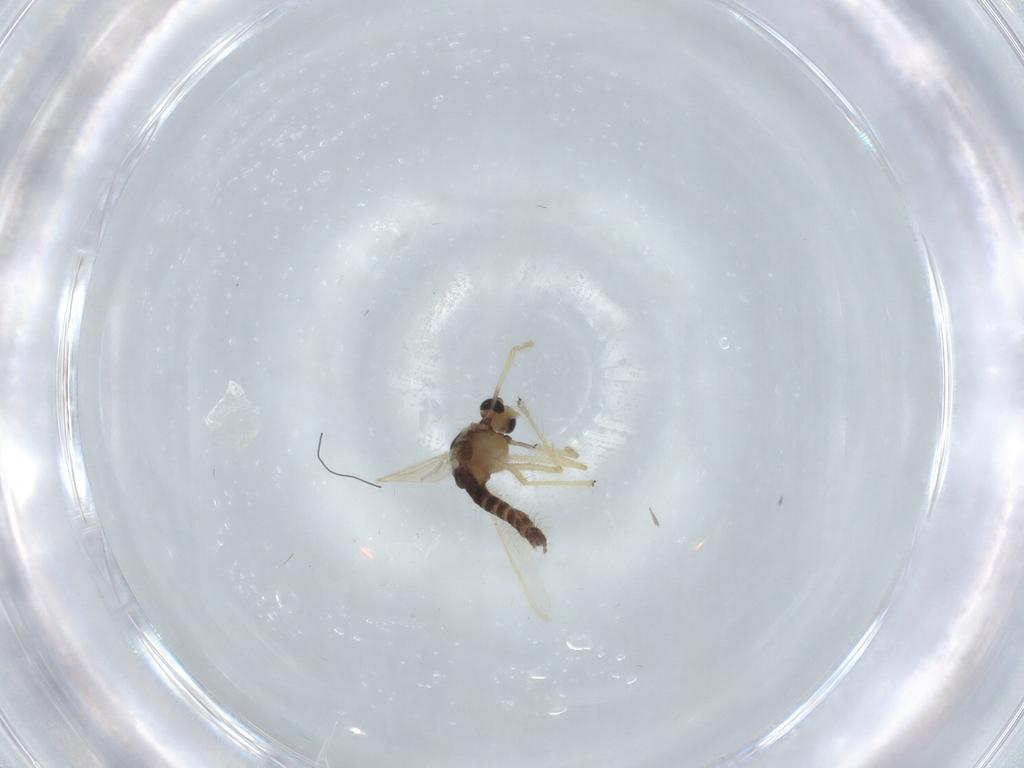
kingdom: Animalia
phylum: Arthropoda
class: Insecta
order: Diptera
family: Chironomidae
